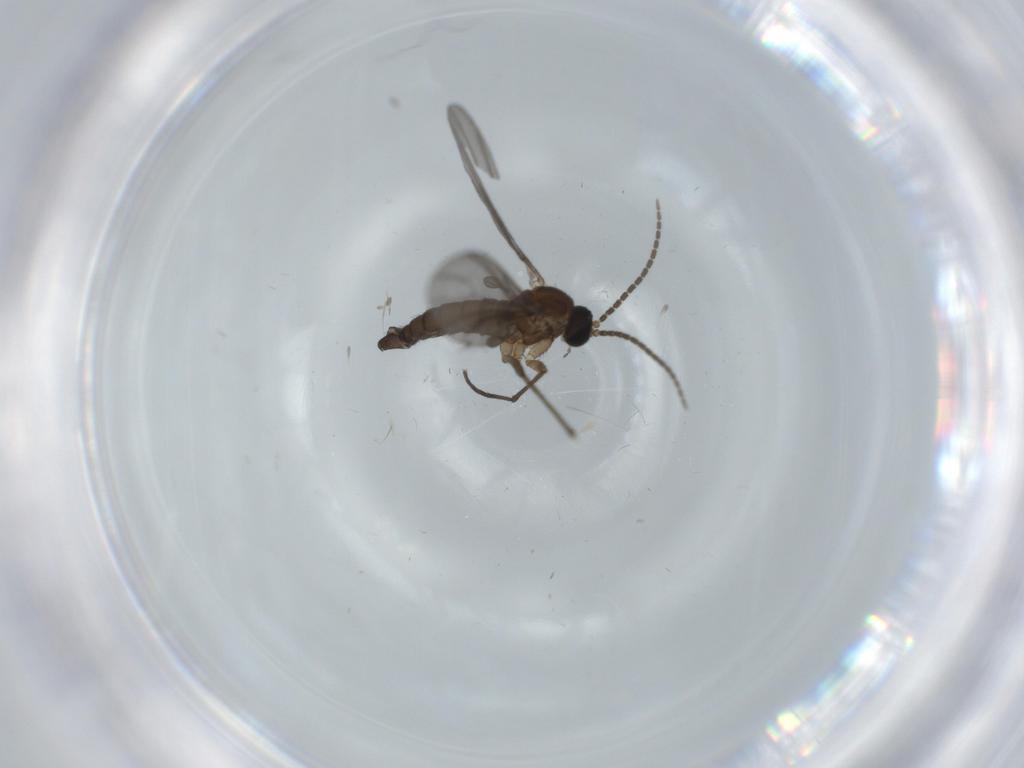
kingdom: Animalia
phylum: Arthropoda
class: Insecta
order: Diptera
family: Sciaridae
